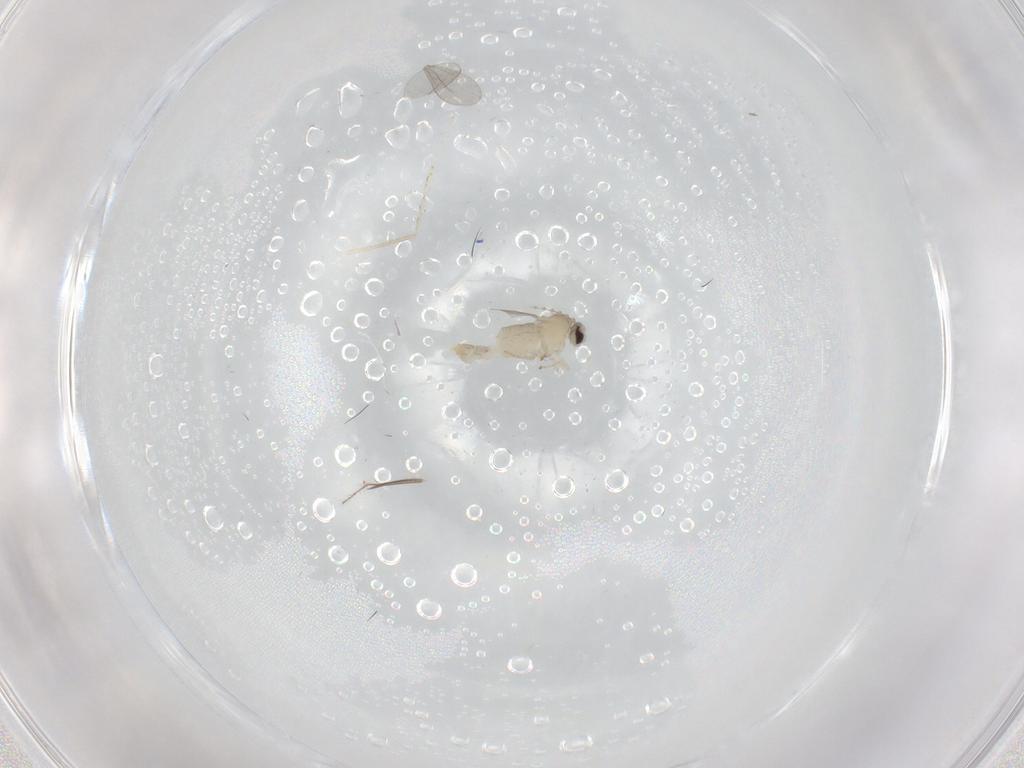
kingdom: Animalia
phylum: Arthropoda
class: Insecta
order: Diptera
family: Cecidomyiidae
